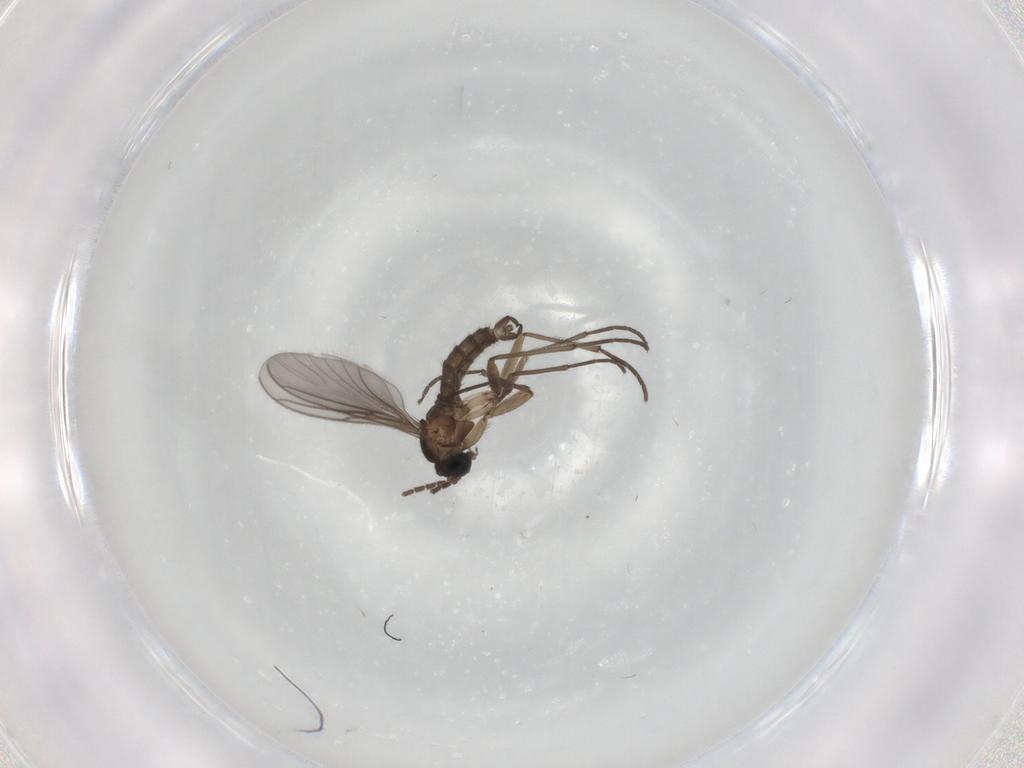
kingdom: Animalia
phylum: Arthropoda
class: Insecta
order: Diptera
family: Sciaridae
